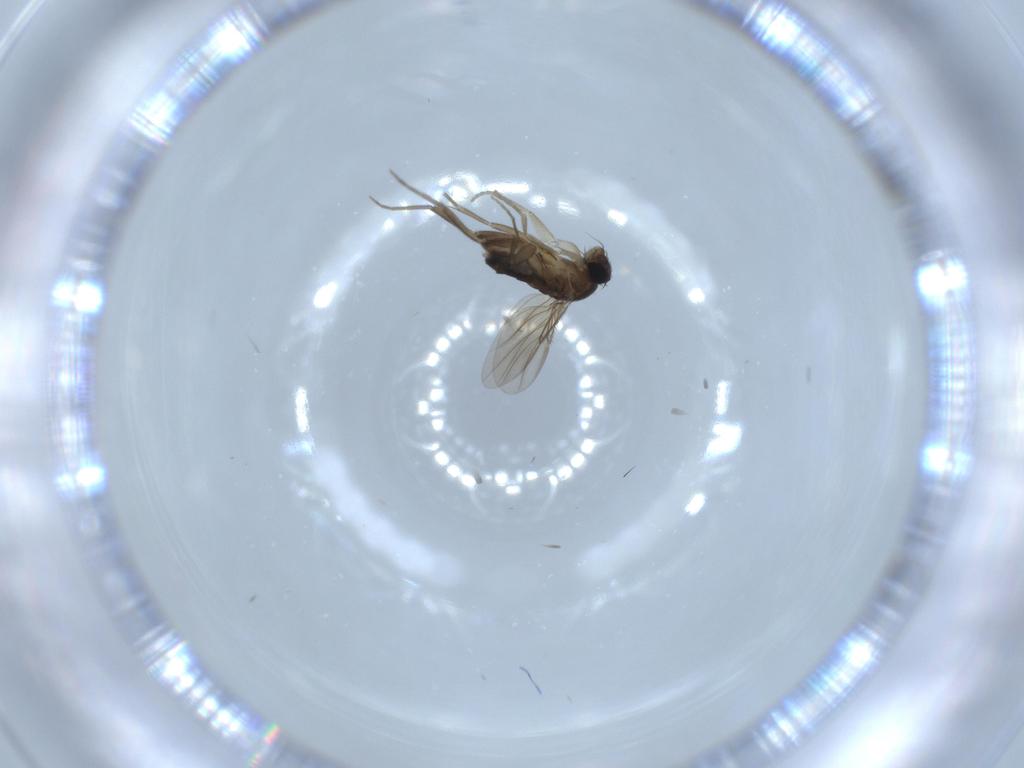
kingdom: Animalia
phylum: Arthropoda
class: Insecta
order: Diptera
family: Phoridae
